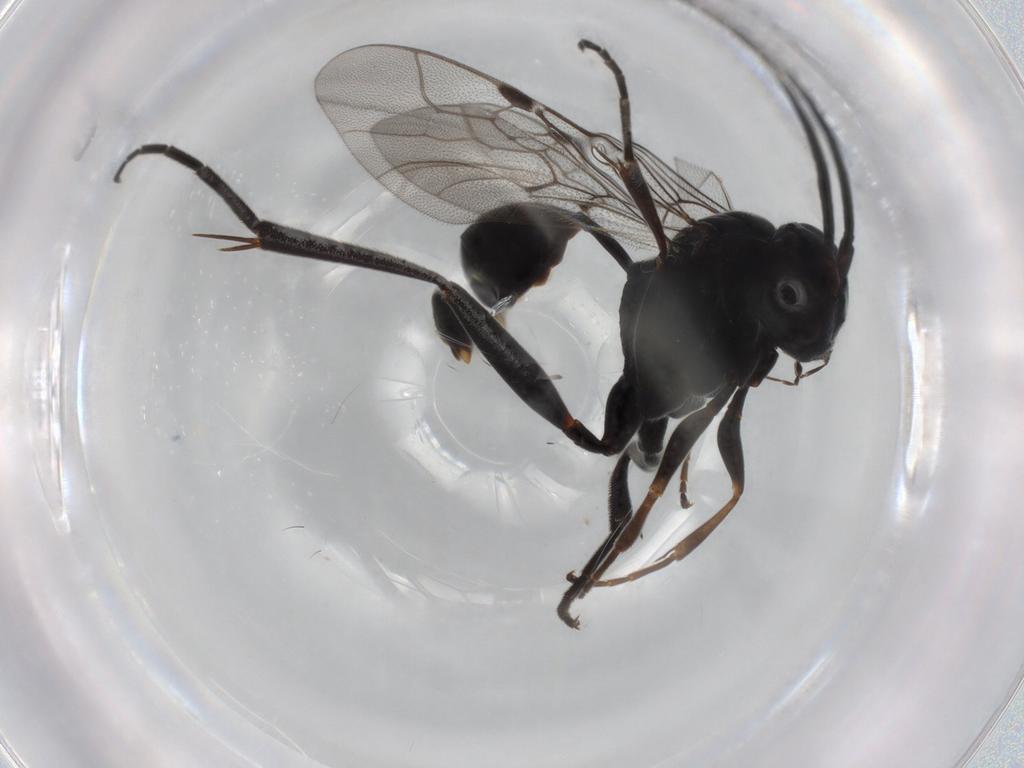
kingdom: Animalia
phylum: Arthropoda
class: Insecta
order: Hymenoptera
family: Evaniidae
